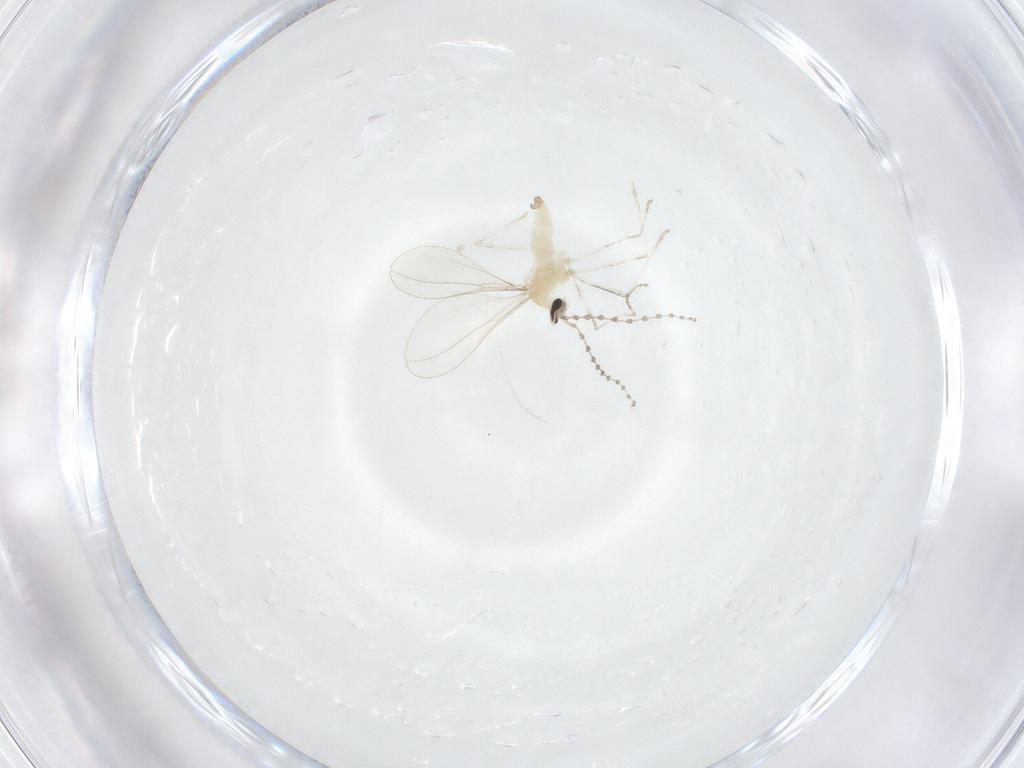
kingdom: Animalia
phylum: Arthropoda
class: Insecta
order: Diptera
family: Cecidomyiidae
